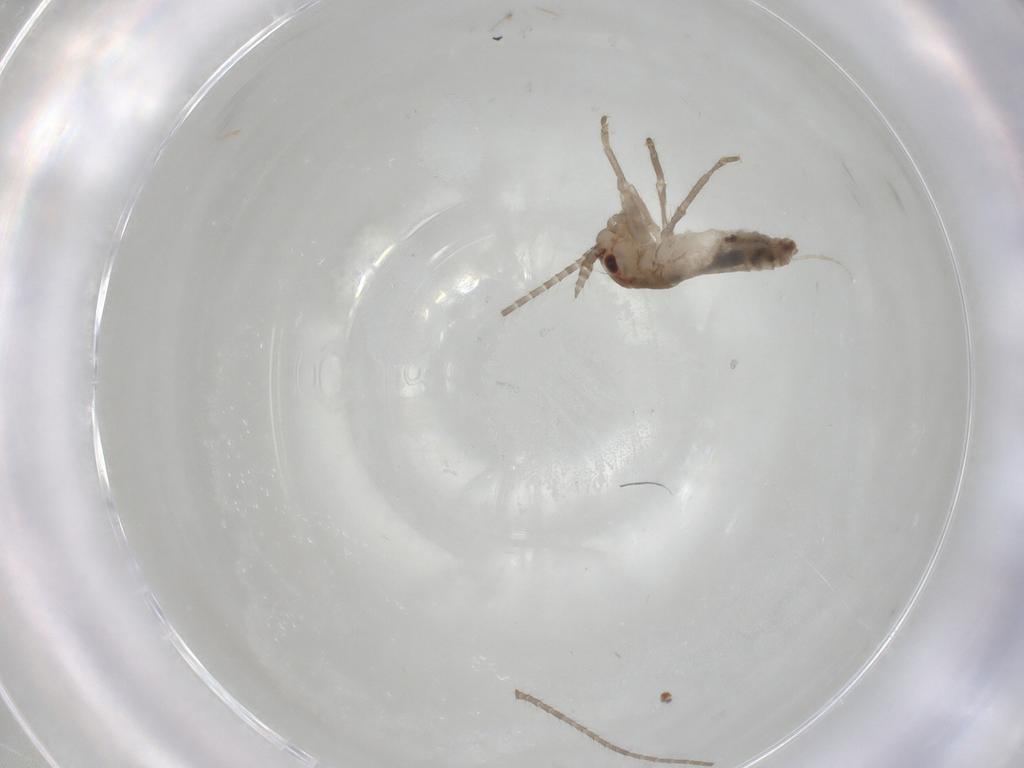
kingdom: Animalia
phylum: Arthropoda
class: Insecta
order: Orthoptera
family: Mogoplistidae
